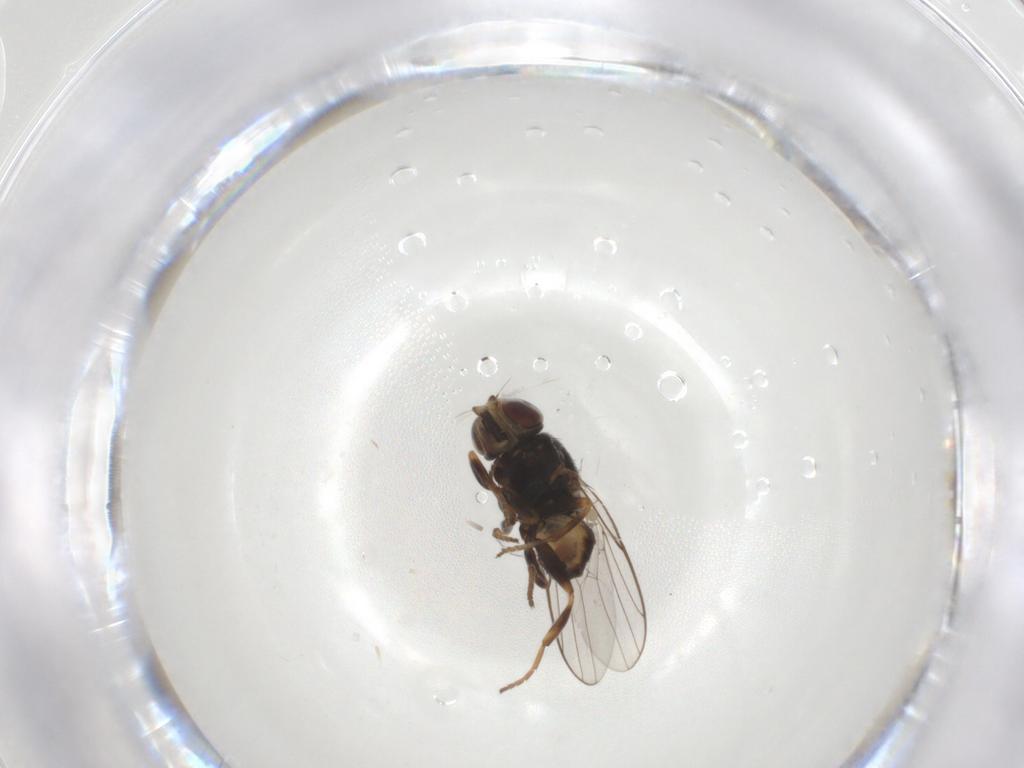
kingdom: Animalia
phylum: Arthropoda
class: Insecta
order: Diptera
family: Chloropidae
